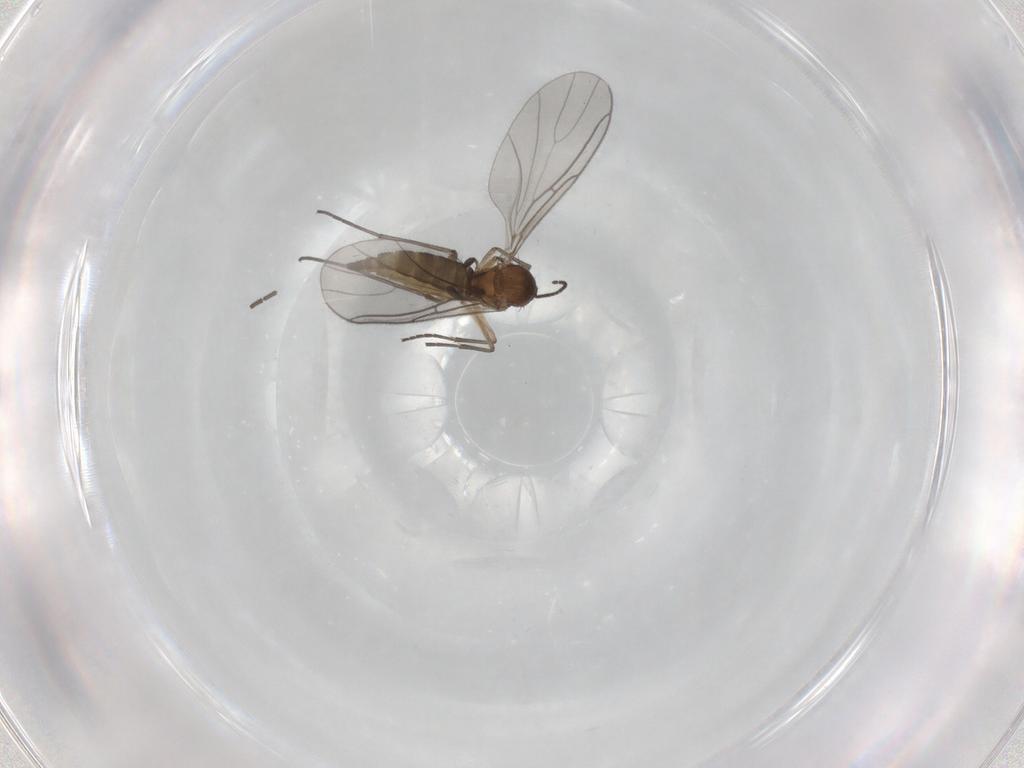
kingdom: Animalia
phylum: Arthropoda
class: Insecta
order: Diptera
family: Sciaridae
